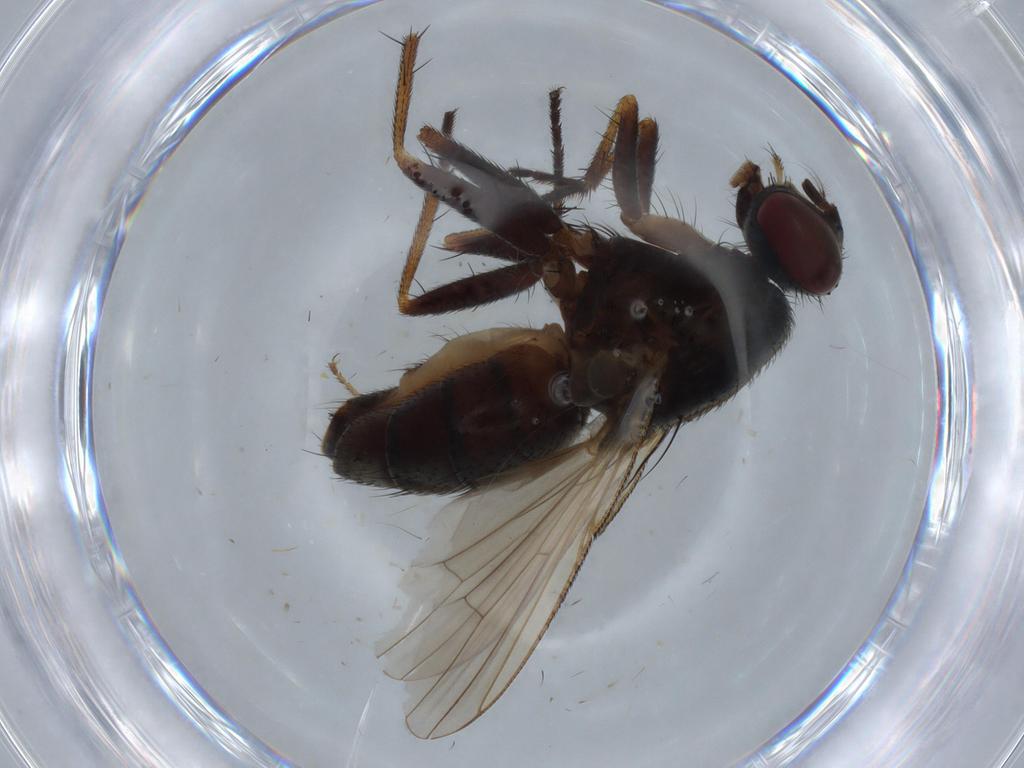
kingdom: Animalia
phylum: Arthropoda
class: Insecta
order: Diptera
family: Muscidae
